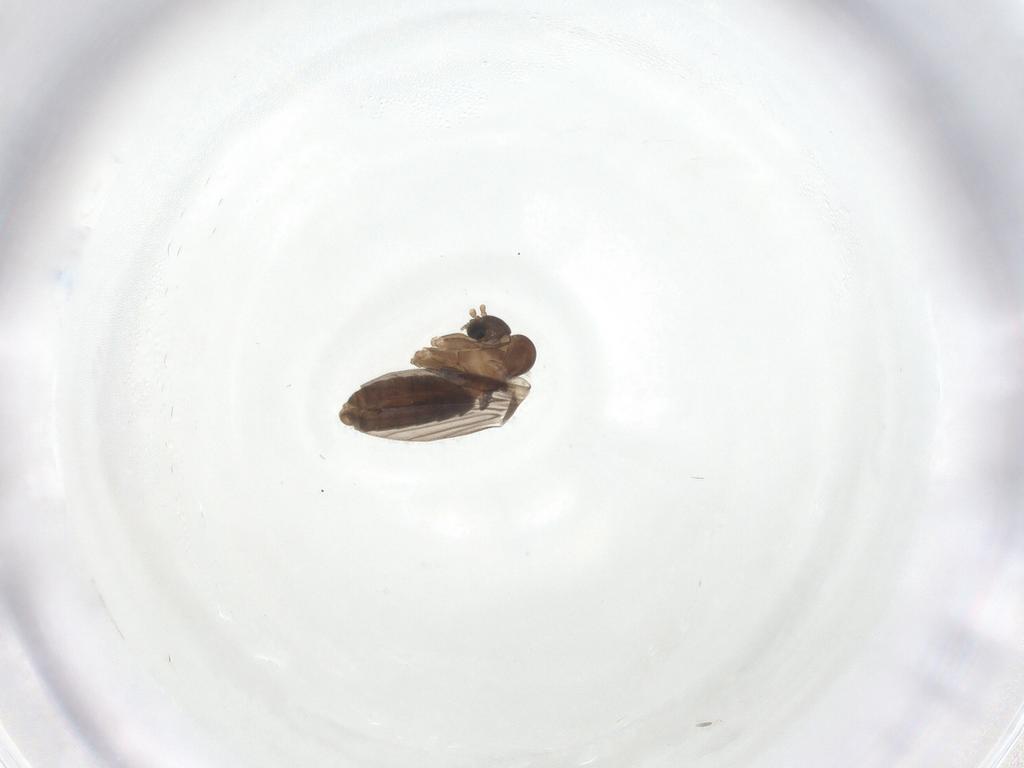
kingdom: Animalia
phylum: Arthropoda
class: Insecta
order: Diptera
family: Psychodidae
